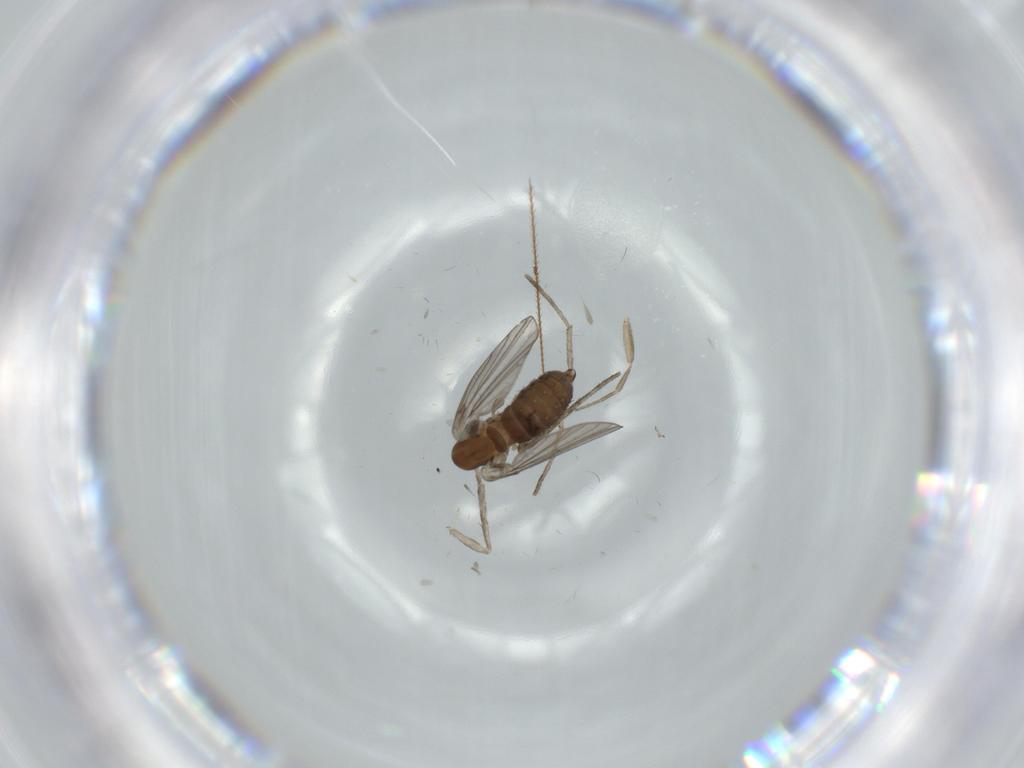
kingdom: Animalia
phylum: Arthropoda
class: Insecta
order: Diptera
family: Psychodidae
